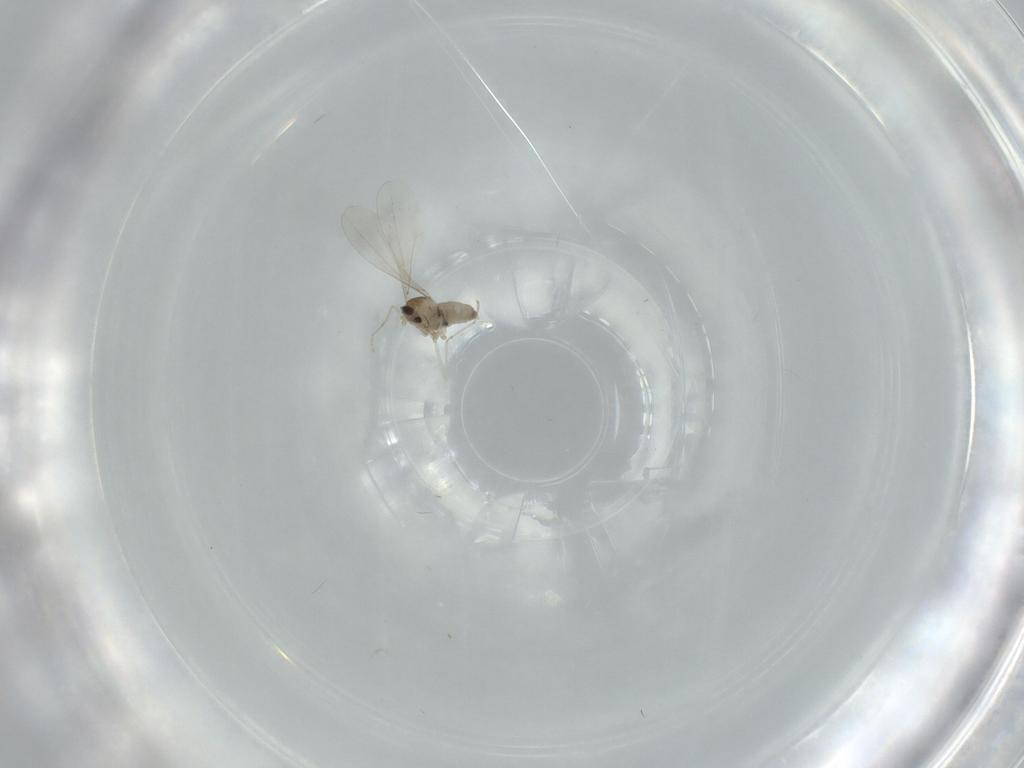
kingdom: Animalia
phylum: Arthropoda
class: Insecta
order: Diptera
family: Cecidomyiidae
